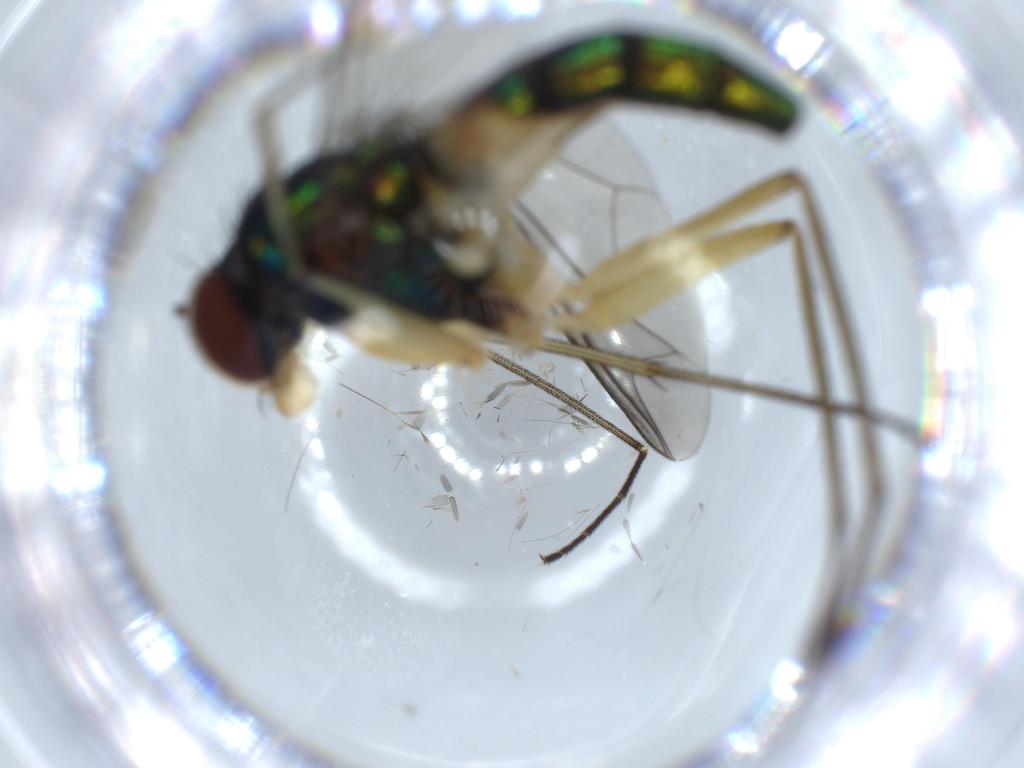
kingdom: Animalia
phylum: Arthropoda
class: Insecta
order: Diptera
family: Dolichopodidae
